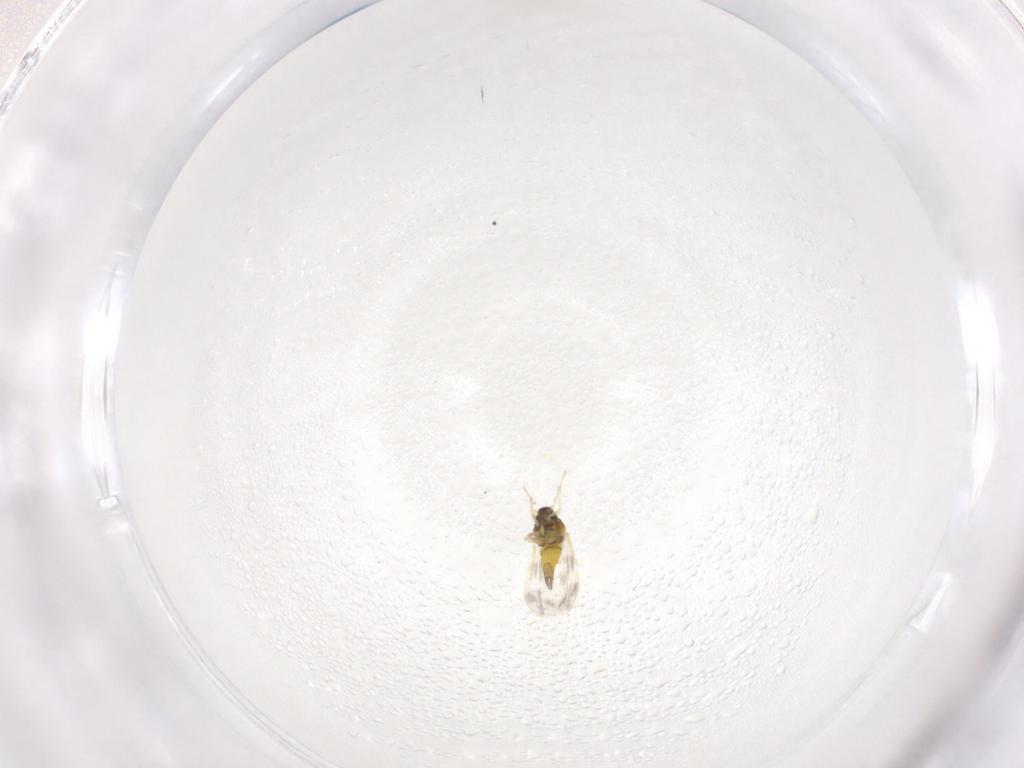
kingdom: Animalia
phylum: Arthropoda
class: Insecta
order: Hemiptera
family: Aleyrodidae
